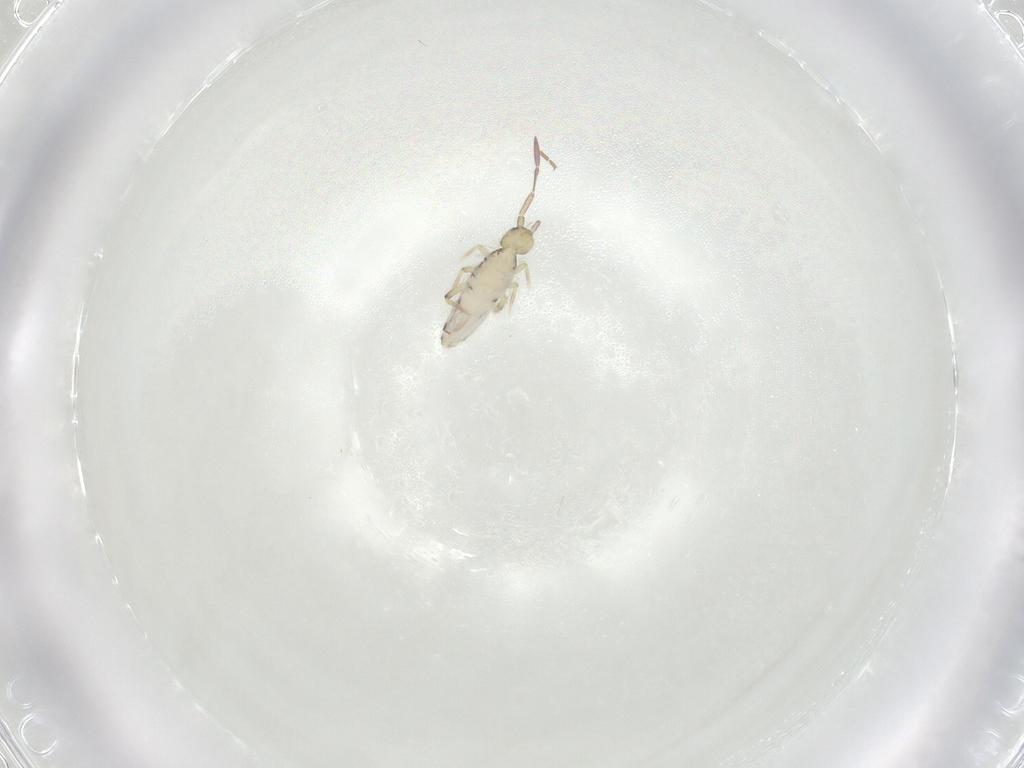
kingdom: Animalia
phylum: Arthropoda
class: Collembola
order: Entomobryomorpha
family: Entomobryidae
